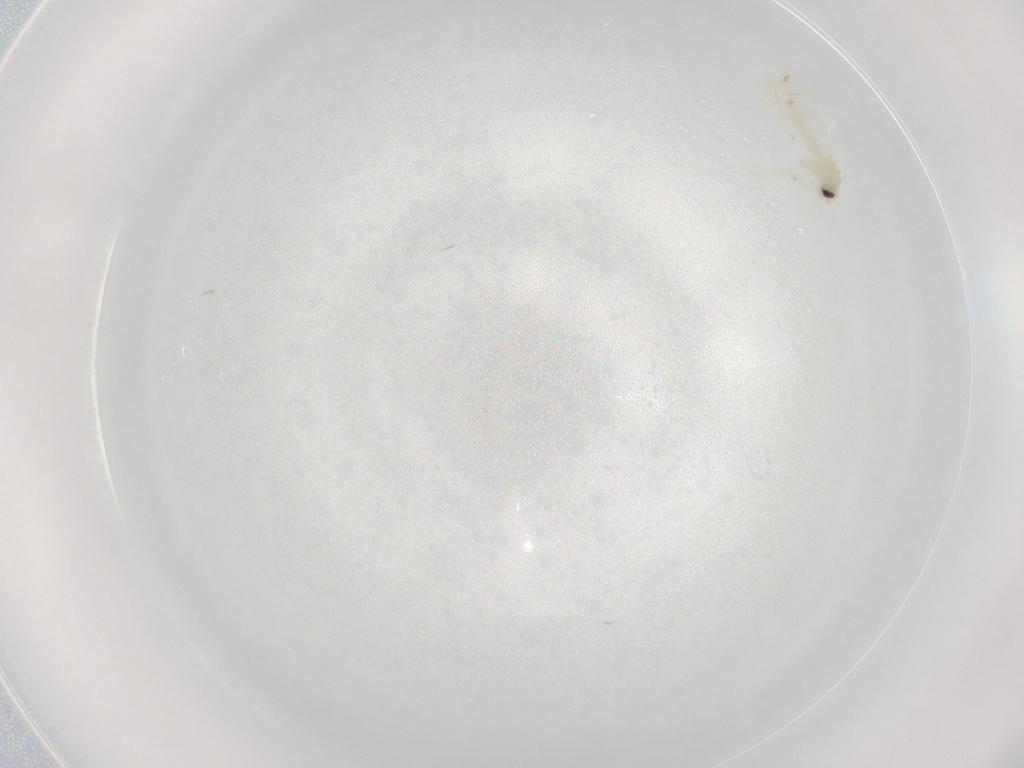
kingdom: Animalia
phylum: Arthropoda
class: Insecta
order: Hemiptera
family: Aleyrodidae
